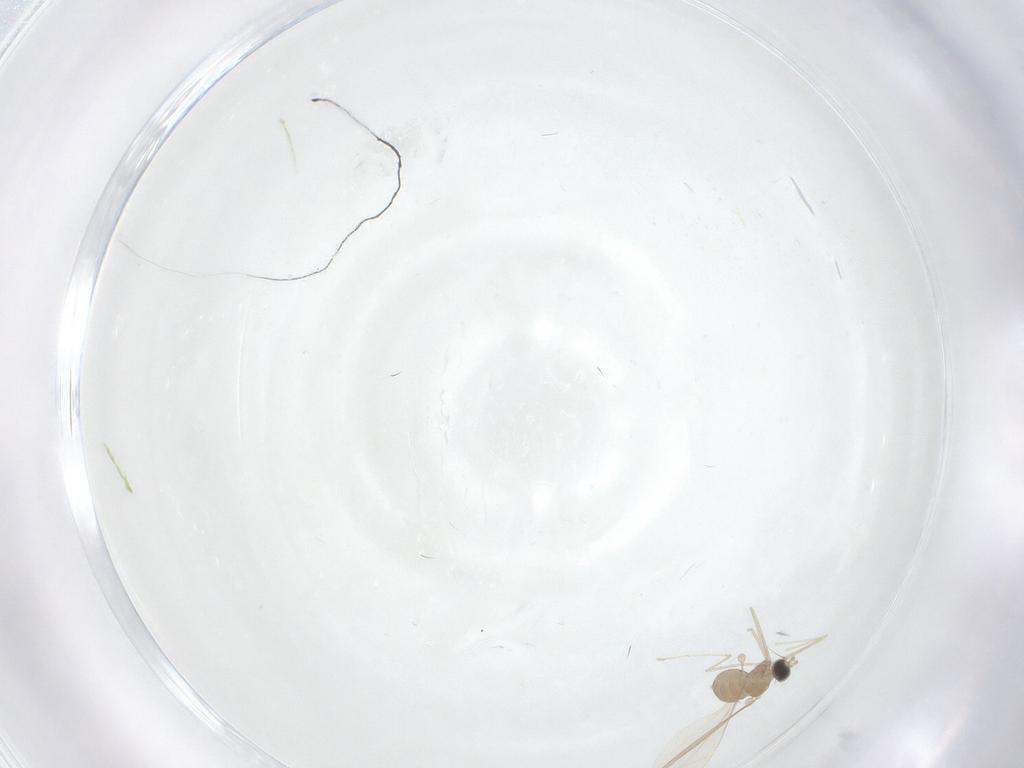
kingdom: Animalia
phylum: Arthropoda
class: Insecta
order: Diptera
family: Cecidomyiidae
